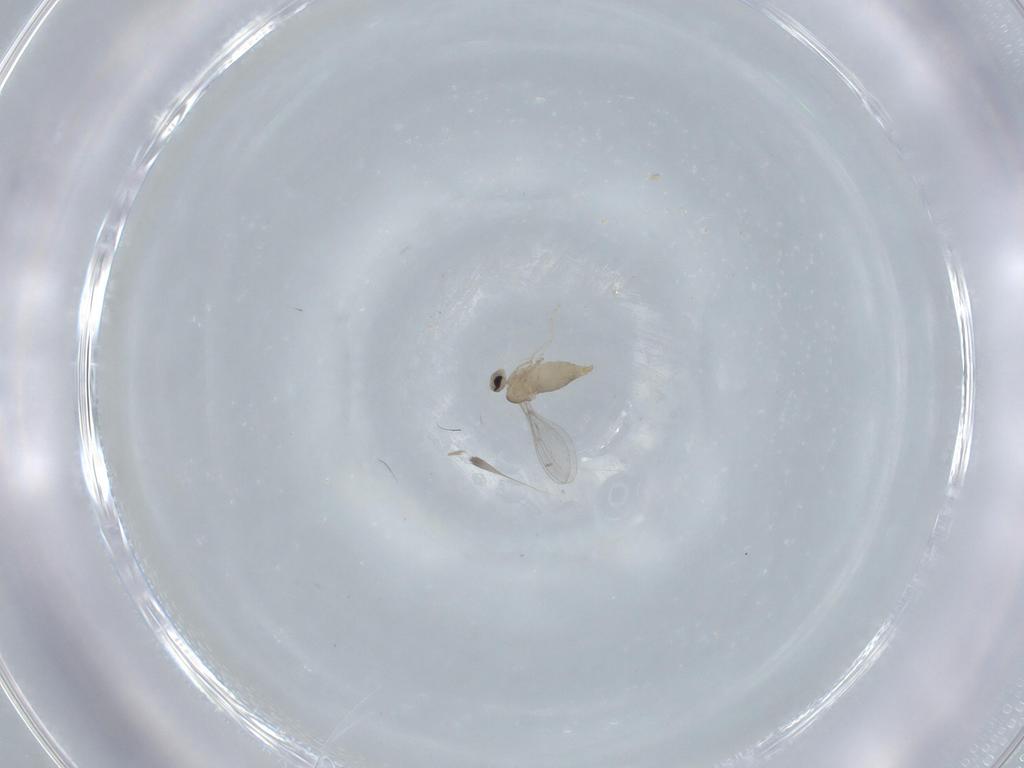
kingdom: Animalia
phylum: Arthropoda
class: Insecta
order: Diptera
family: Cecidomyiidae
